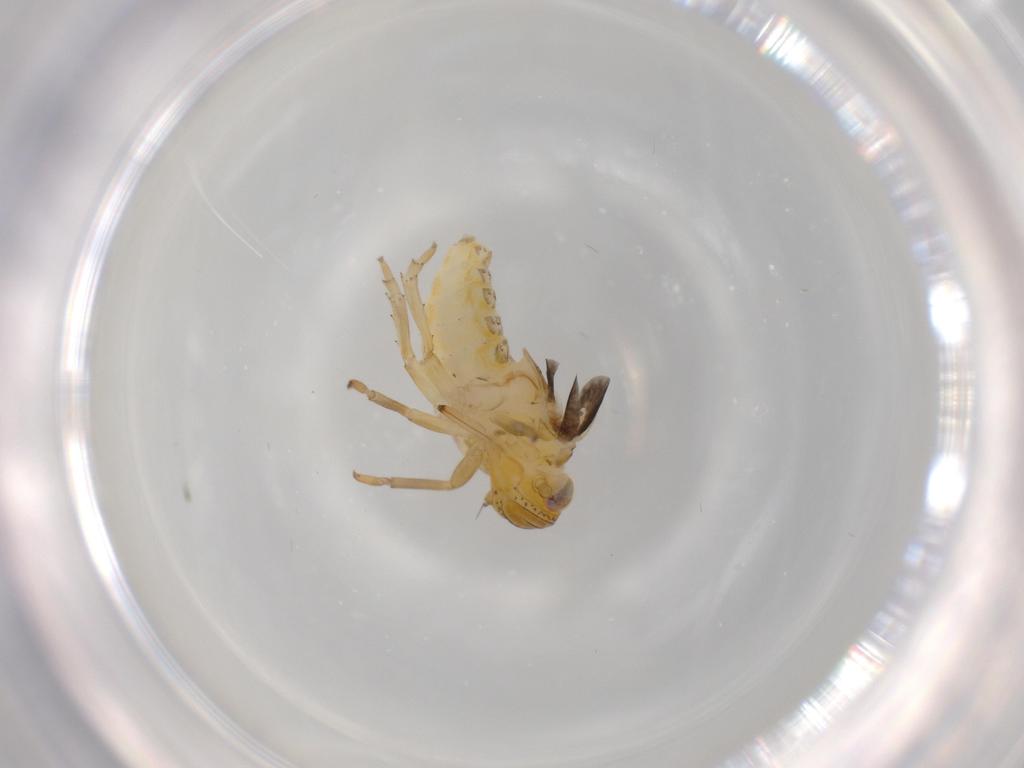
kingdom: Animalia
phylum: Arthropoda
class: Insecta
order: Hemiptera
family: Issidae
